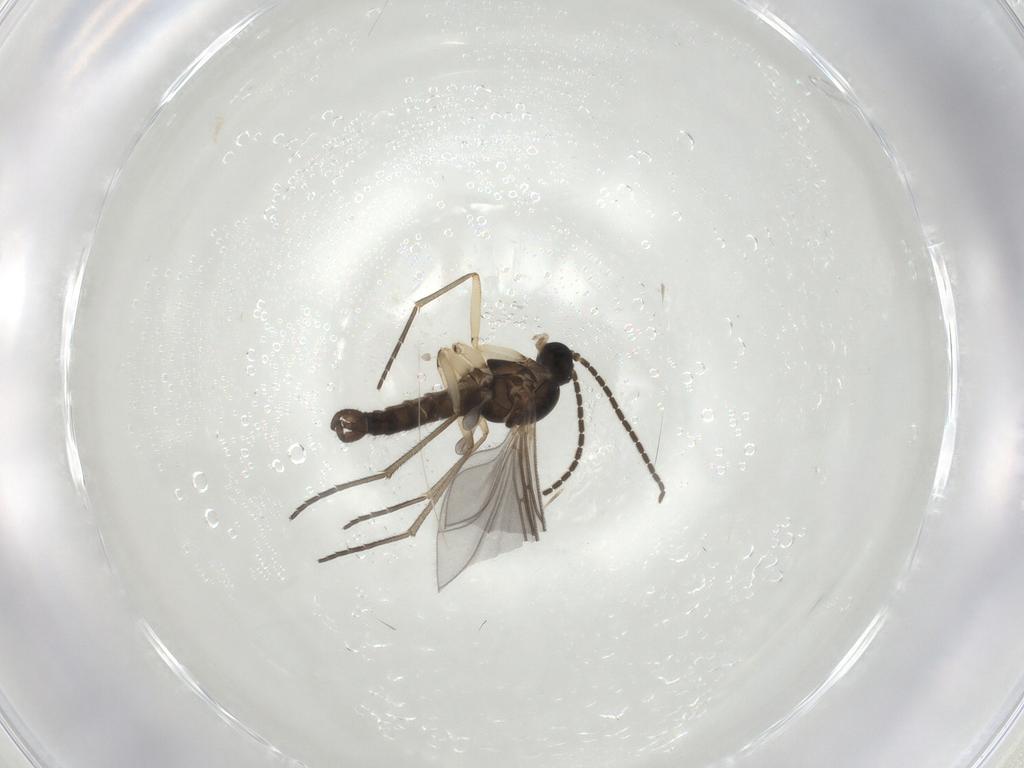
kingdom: Animalia
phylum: Arthropoda
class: Insecta
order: Diptera
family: Sciaridae
